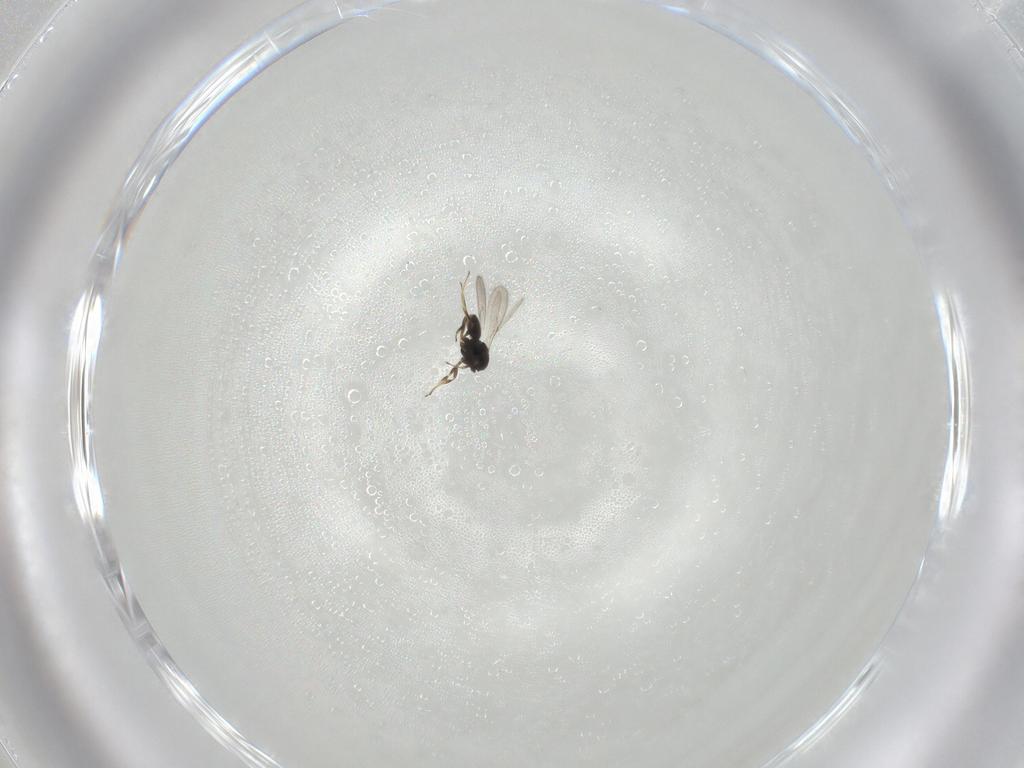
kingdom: Animalia
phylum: Arthropoda
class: Insecta
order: Hymenoptera
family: Scelionidae
